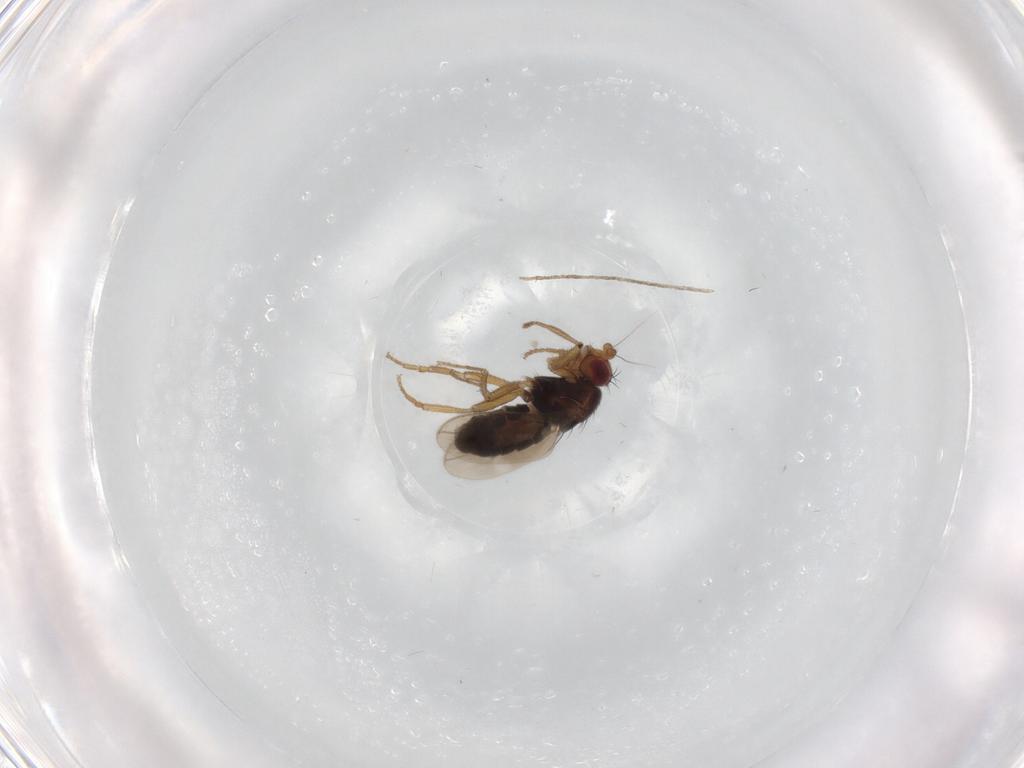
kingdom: Animalia
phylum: Arthropoda
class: Insecta
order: Diptera
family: Sphaeroceridae
